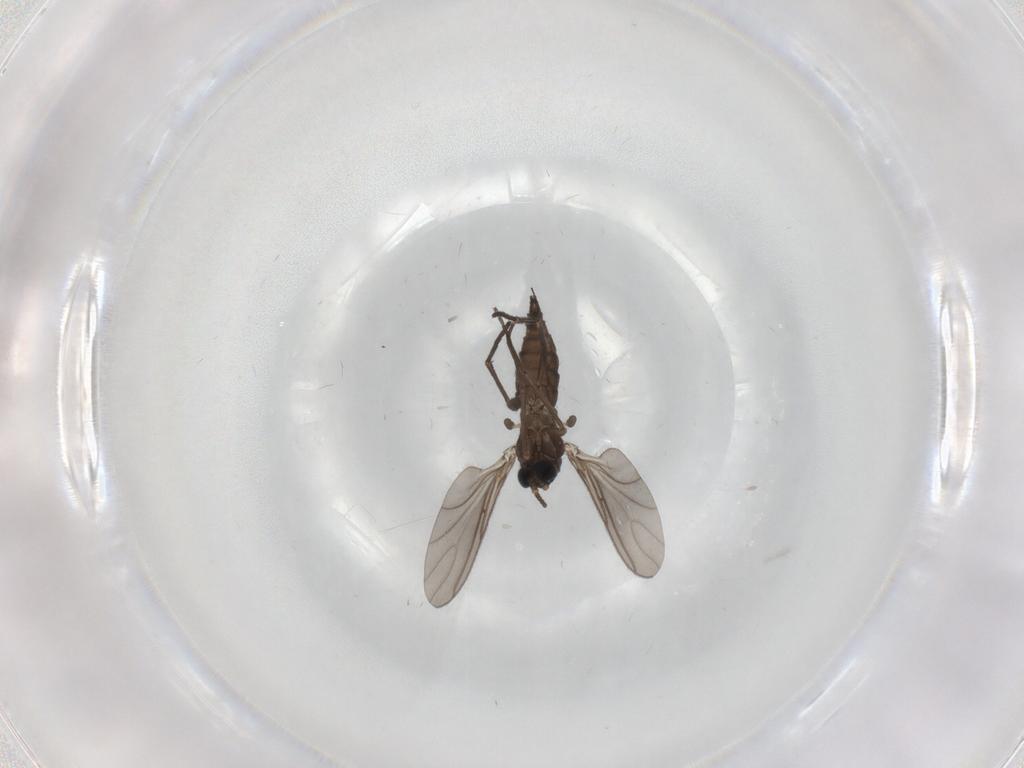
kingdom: Animalia
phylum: Arthropoda
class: Insecta
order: Diptera
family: Sciaridae
